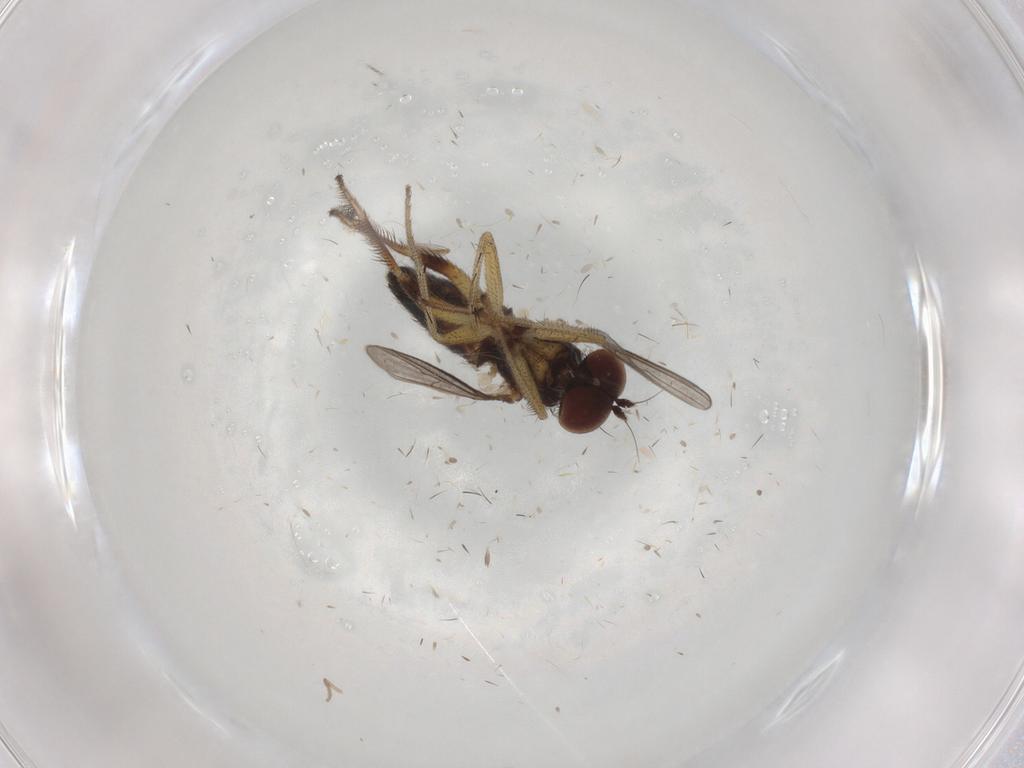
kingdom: Animalia
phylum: Arthropoda
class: Insecta
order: Diptera
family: Psychodidae
